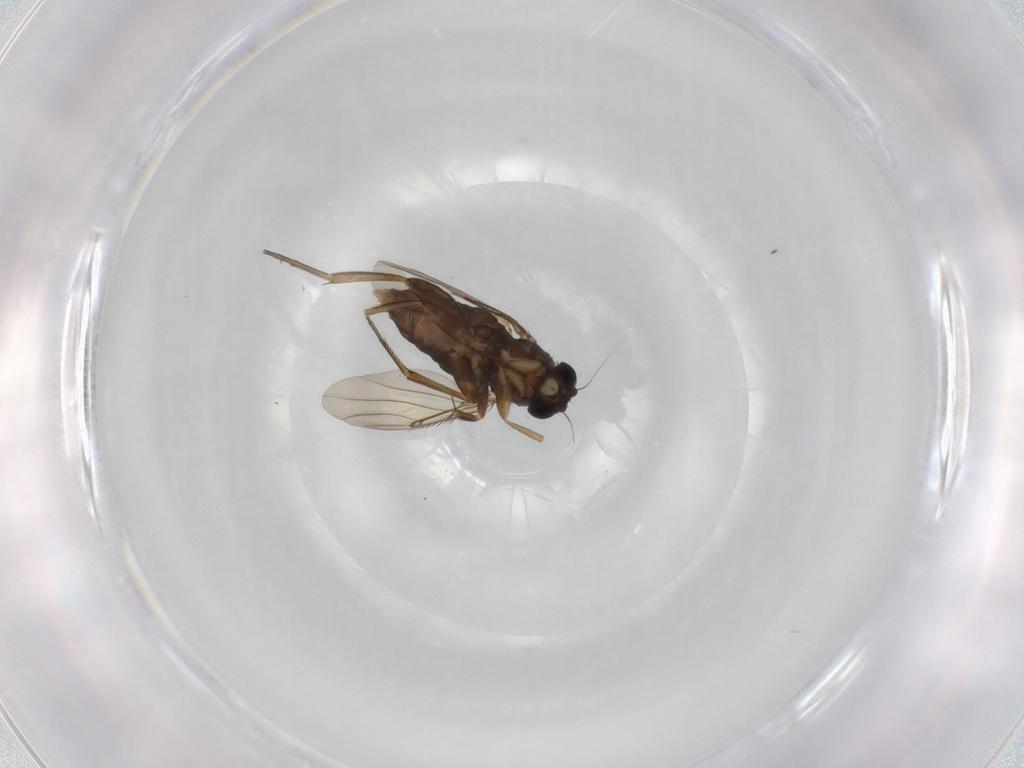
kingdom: Animalia
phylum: Arthropoda
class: Insecta
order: Diptera
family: Phoridae
